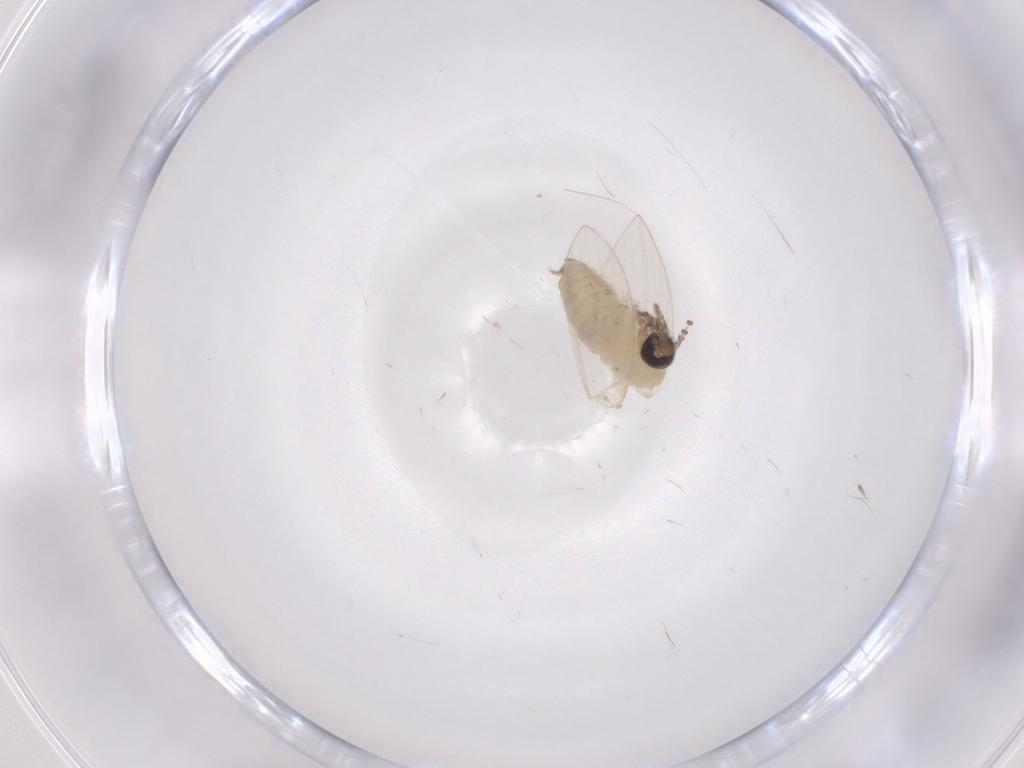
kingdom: Animalia
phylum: Arthropoda
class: Insecta
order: Diptera
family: Psychodidae
